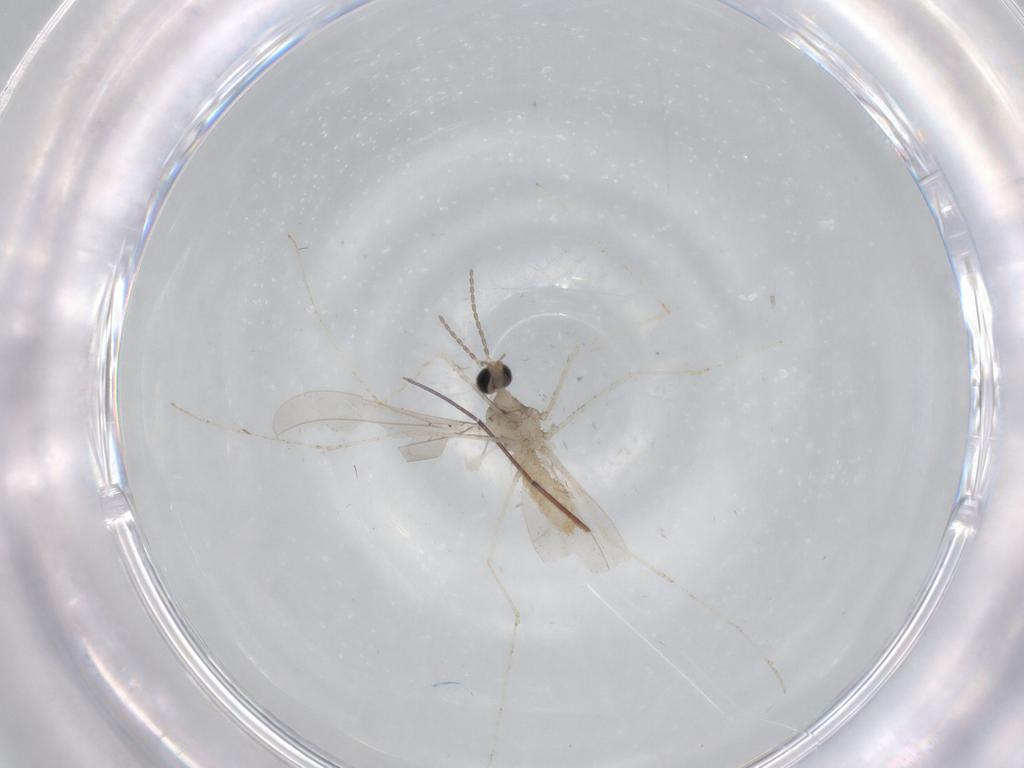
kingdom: Animalia
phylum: Arthropoda
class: Insecta
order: Diptera
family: Cecidomyiidae
